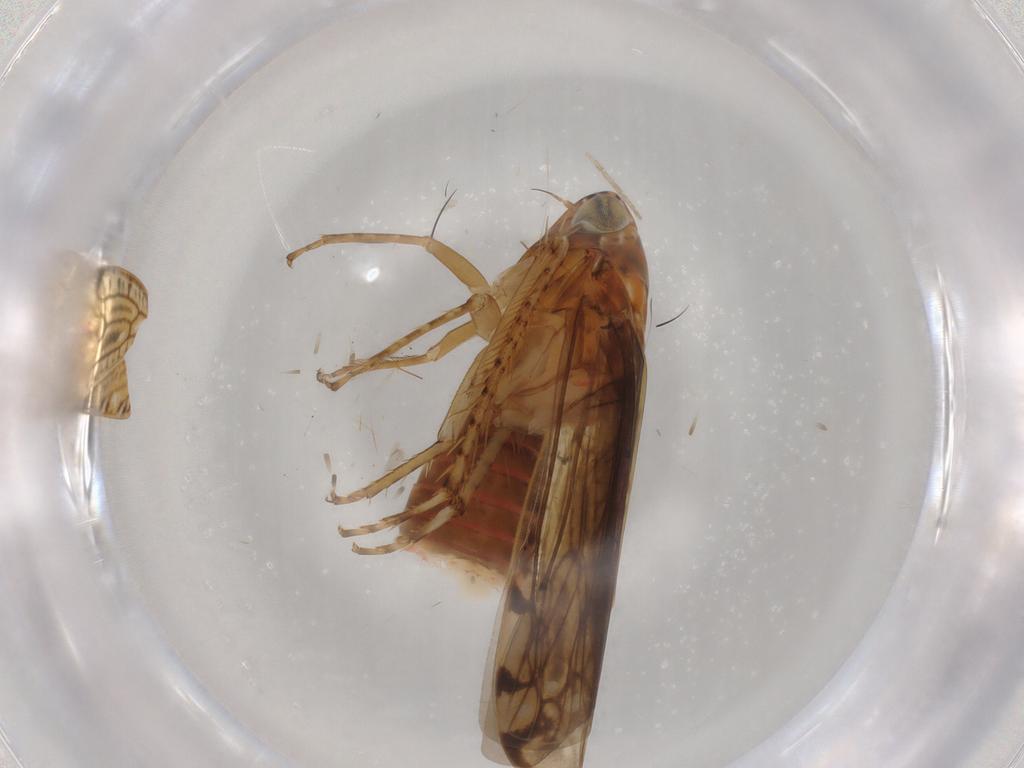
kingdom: Animalia
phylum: Arthropoda
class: Insecta
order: Hemiptera
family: Cicadellidae
